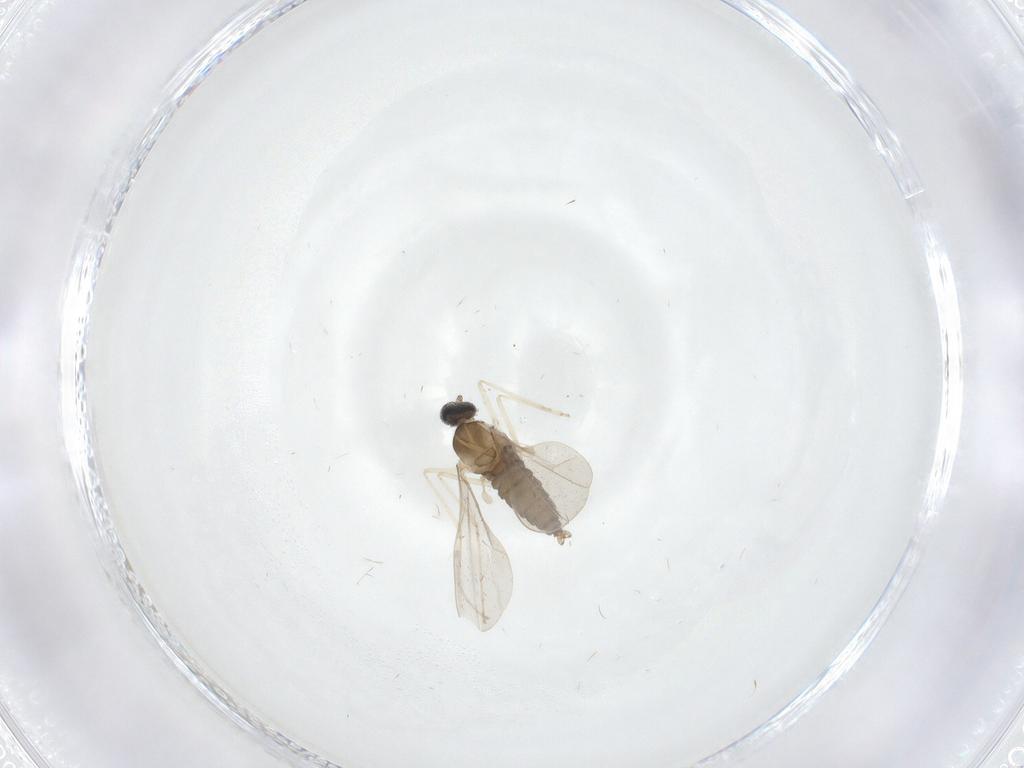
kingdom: Animalia
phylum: Arthropoda
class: Insecta
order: Diptera
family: Cecidomyiidae
